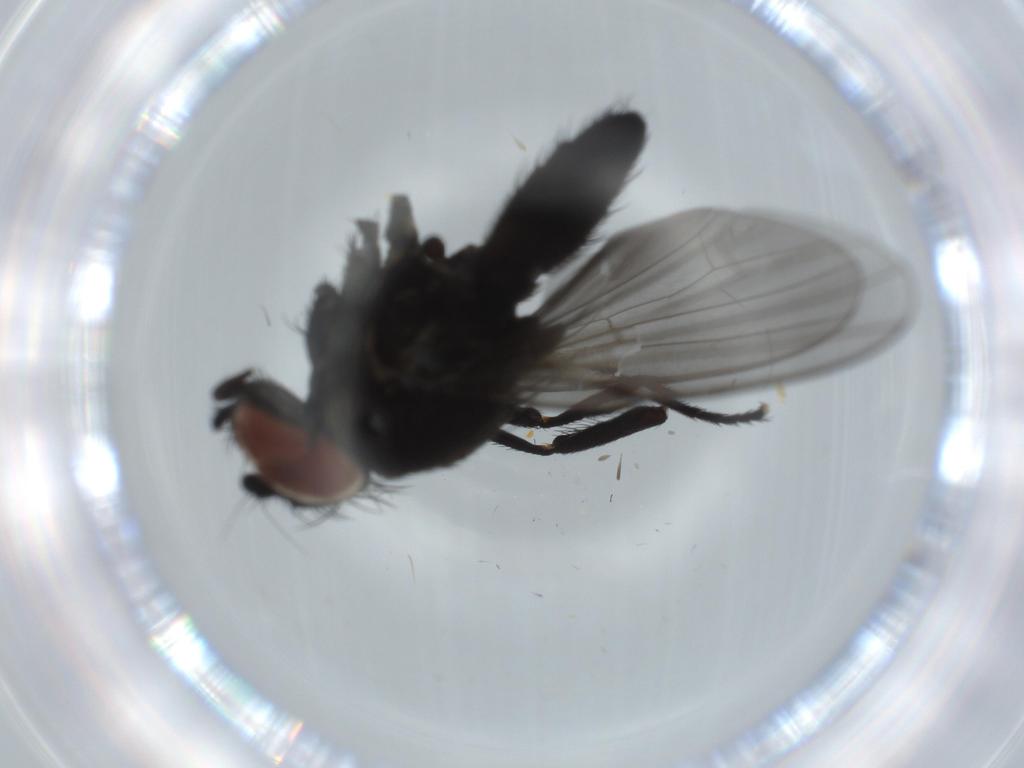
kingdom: Animalia
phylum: Arthropoda
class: Insecta
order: Diptera
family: Milichiidae
